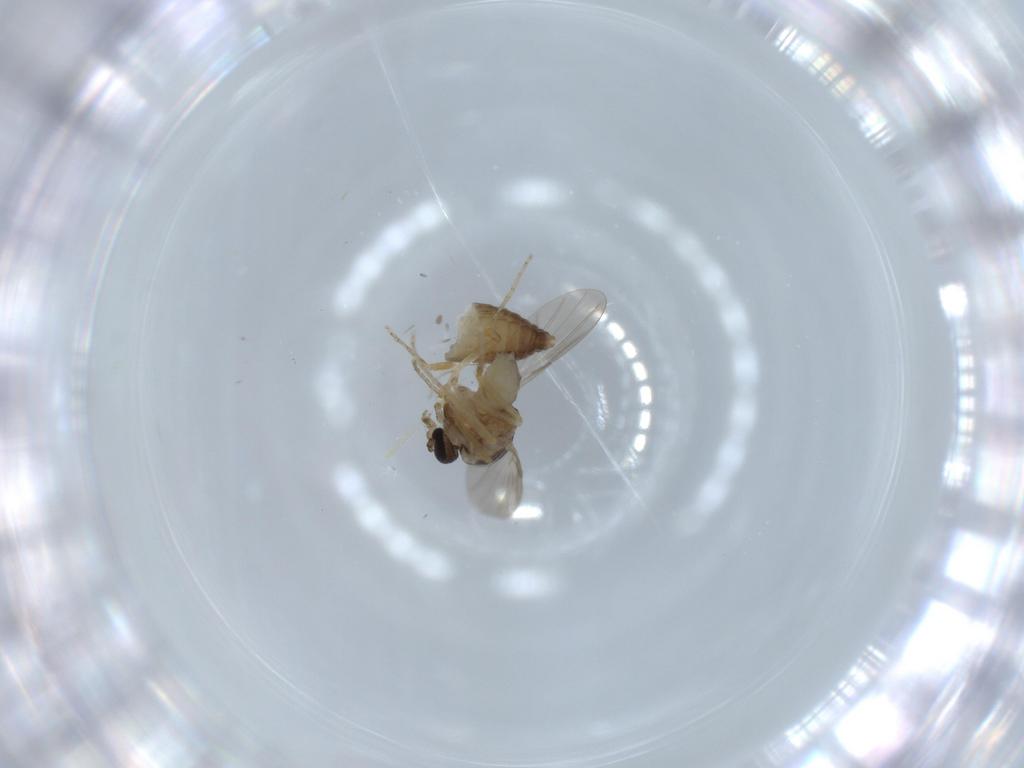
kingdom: Animalia
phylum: Arthropoda
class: Insecta
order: Diptera
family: Ceratopogonidae
